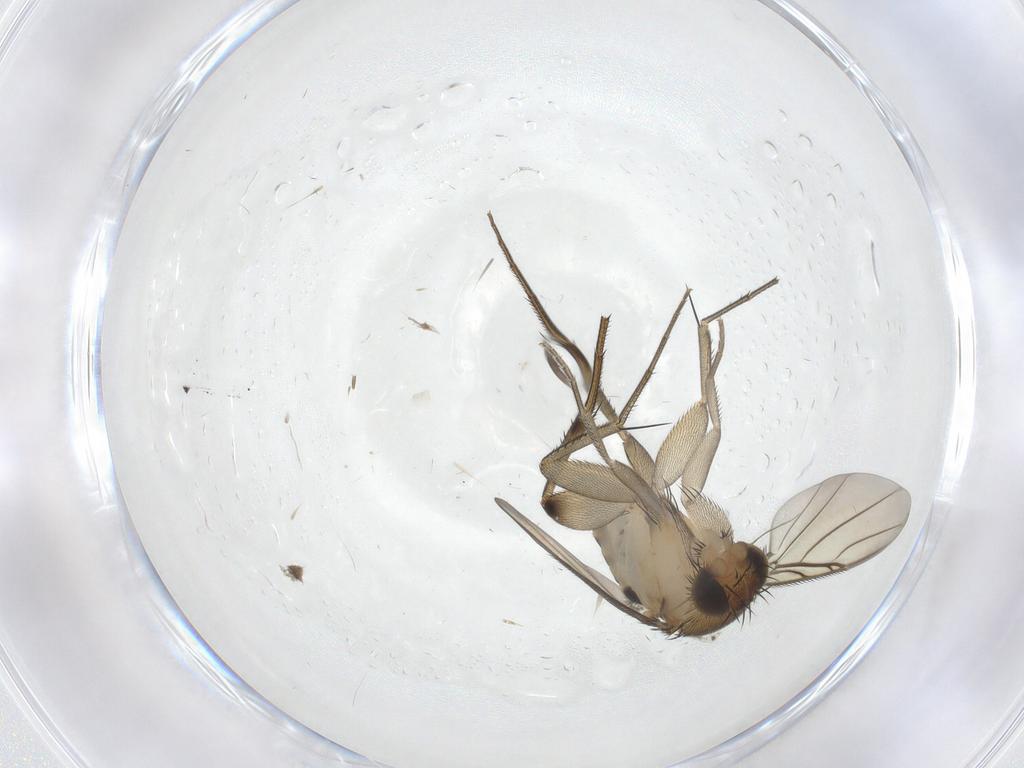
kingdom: Animalia
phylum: Arthropoda
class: Insecta
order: Diptera
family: Phoridae
